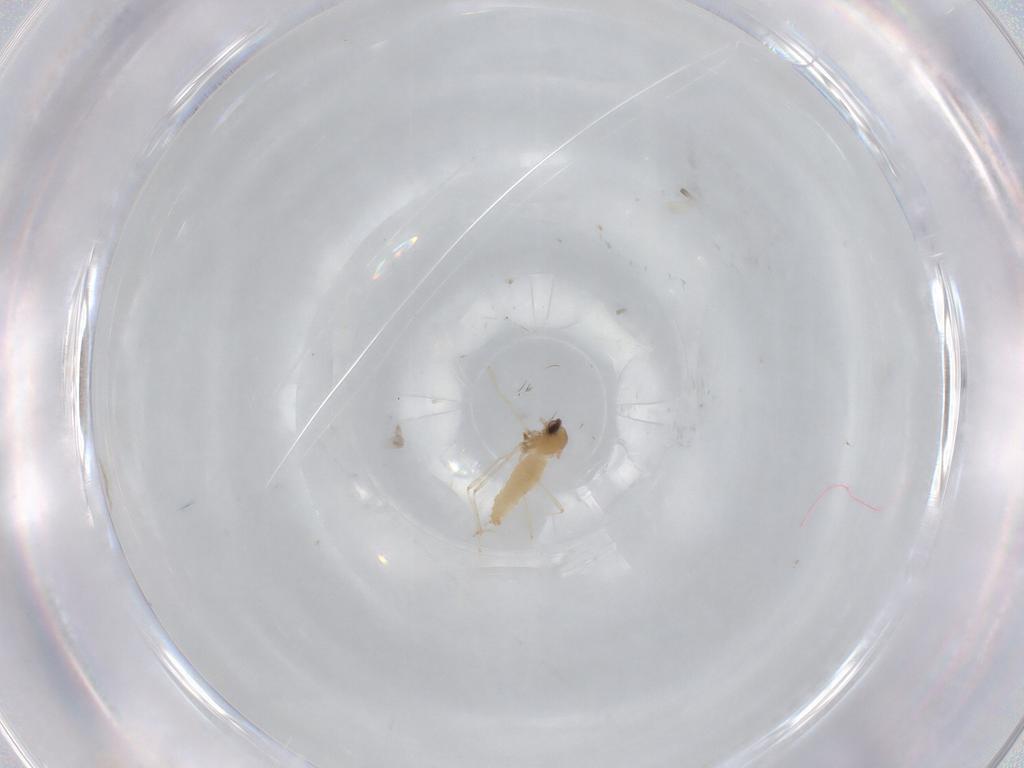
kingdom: Animalia
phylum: Arthropoda
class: Insecta
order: Diptera
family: Cecidomyiidae
